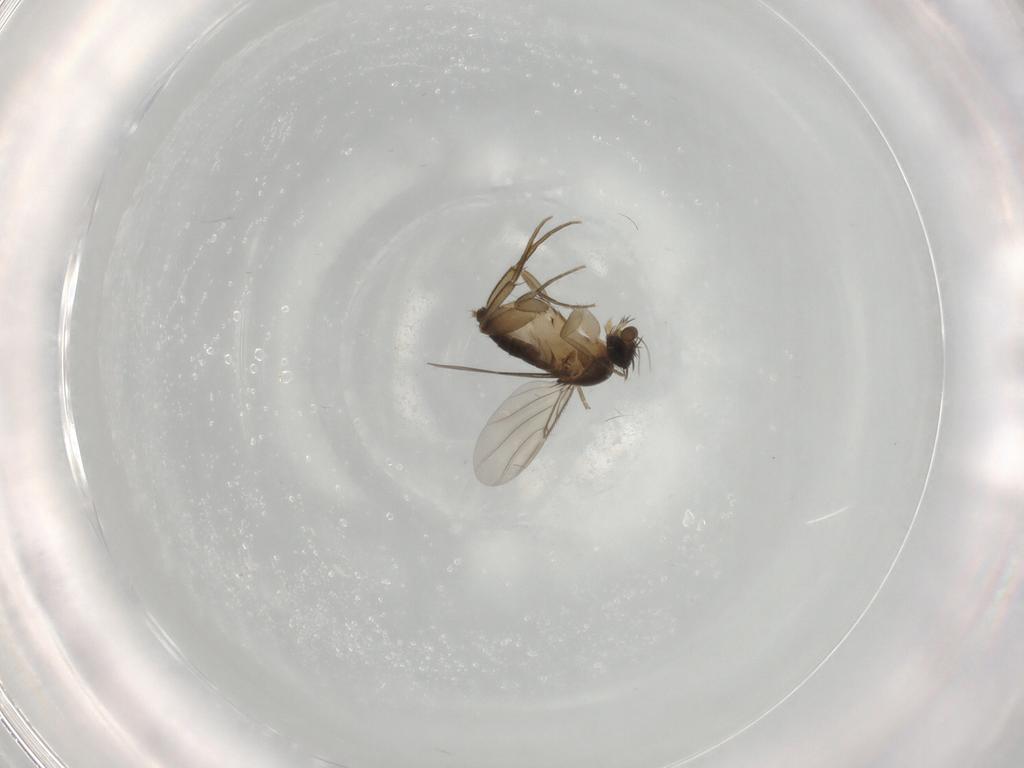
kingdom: Animalia
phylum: Arthropoda
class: Insecta
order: Diptera
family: Phoridae
